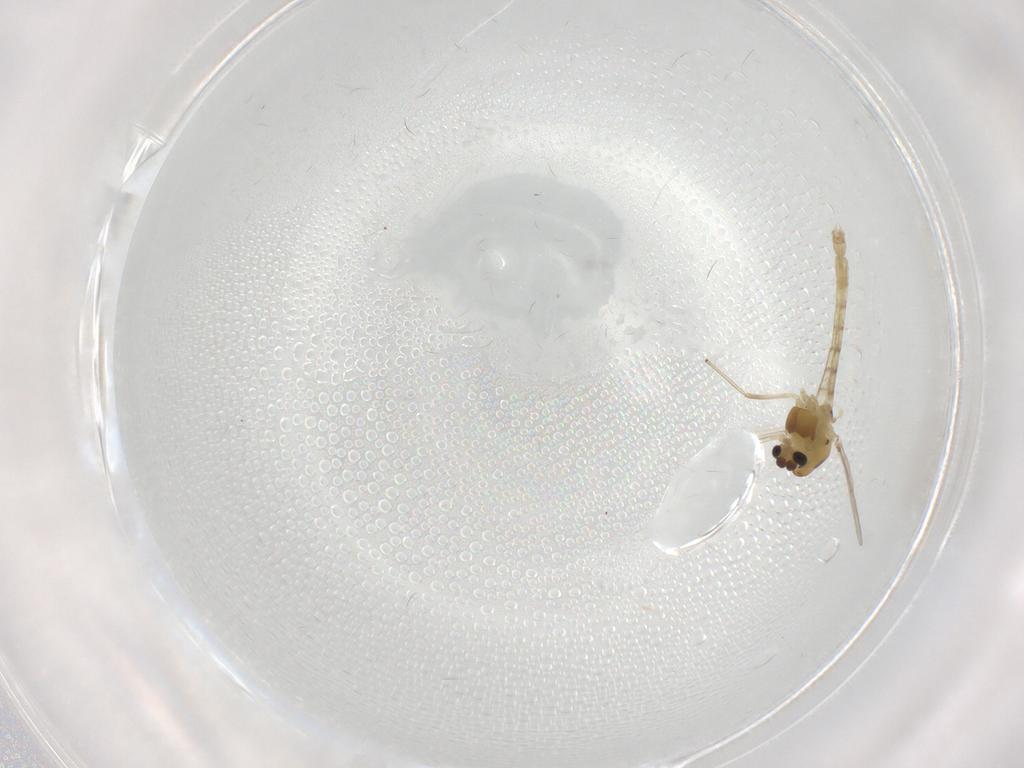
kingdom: Animalia
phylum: Arthropoda
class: Insecta
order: Diptera
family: Chironomidae
